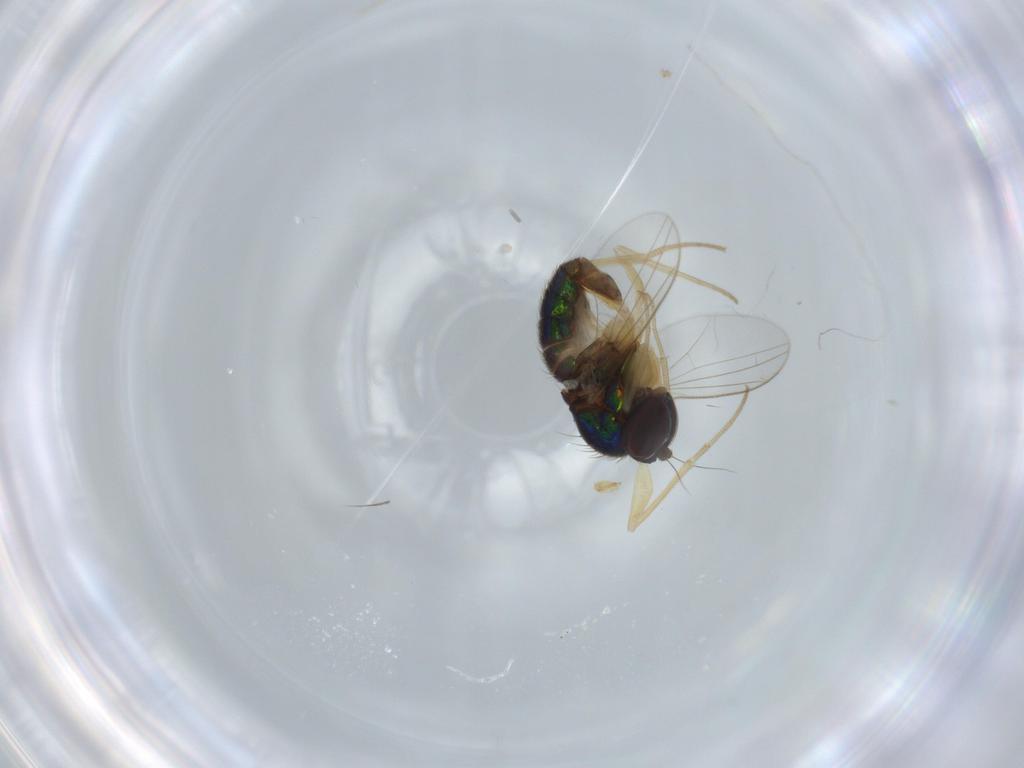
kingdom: Animalia
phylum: Arthropoda
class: Insecta
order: Diptera
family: Dolichopodidae
